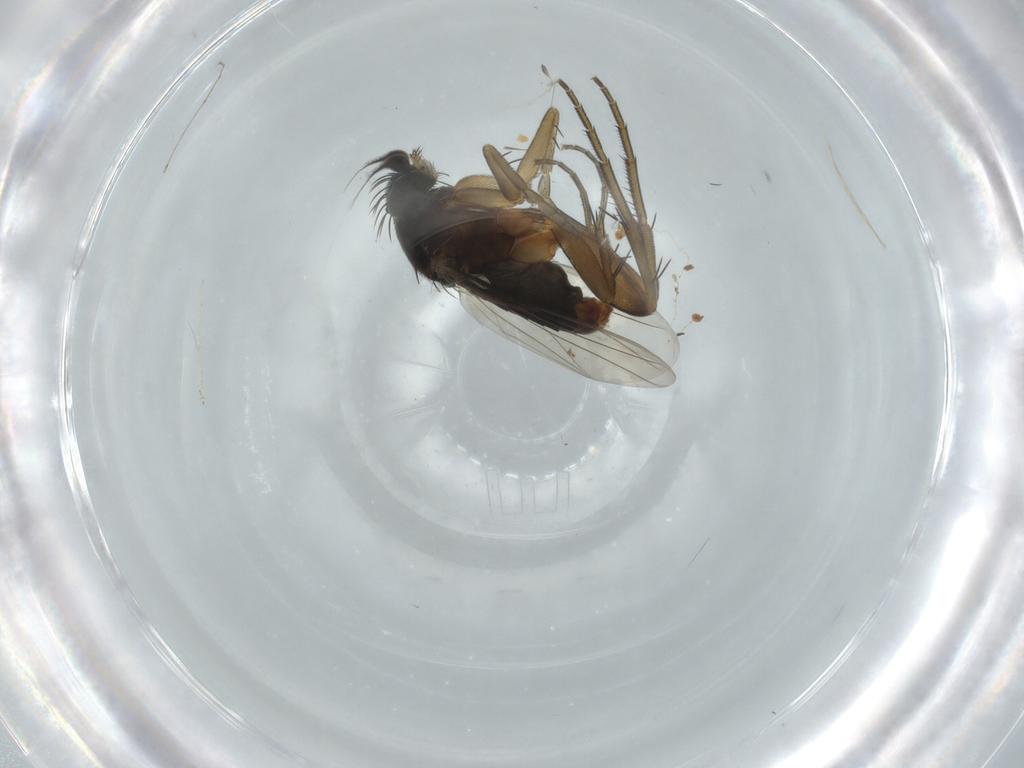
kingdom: Animalia
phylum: Arthropoda
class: Insecta
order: Diptera
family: Phoridae
